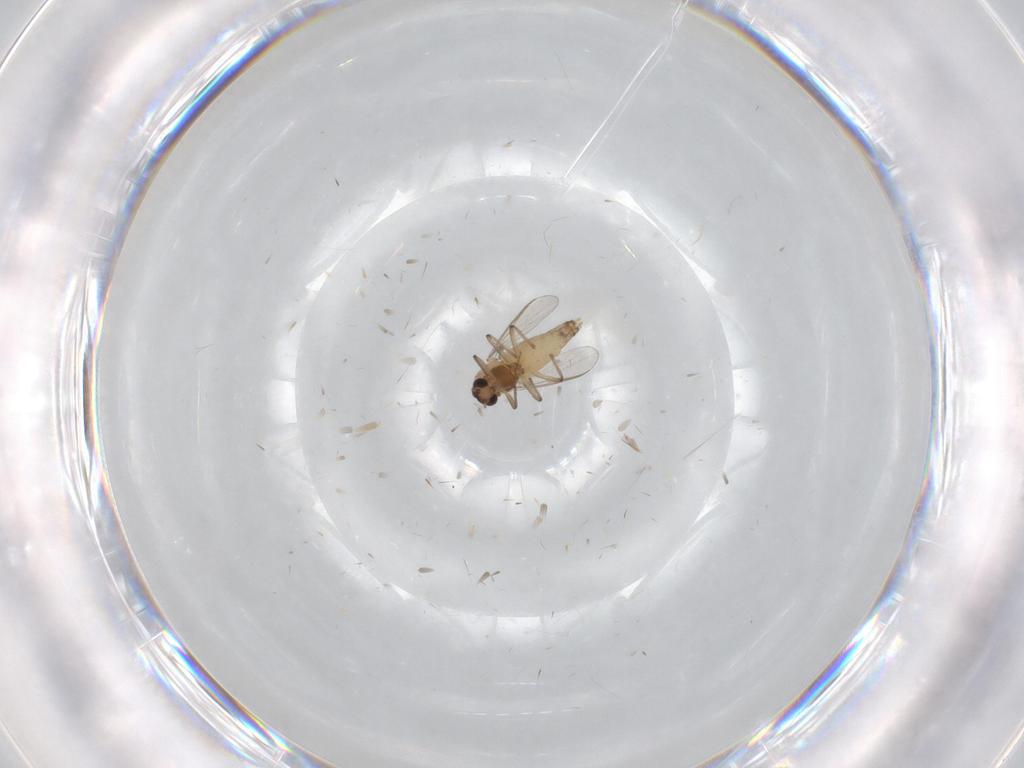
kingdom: Animalia
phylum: Arthropoda
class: Insecta
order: Diptera
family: Chironomidae
